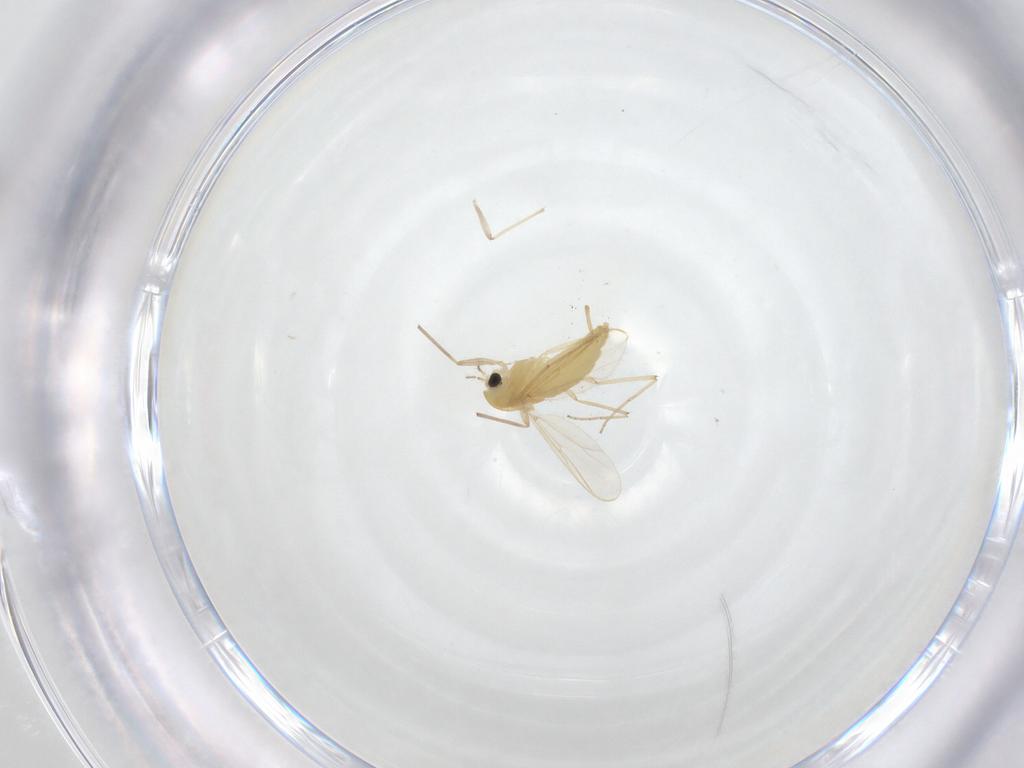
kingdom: Animalia
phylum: Arthropoda
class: Insecta
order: Diptera
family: Chironomidae
